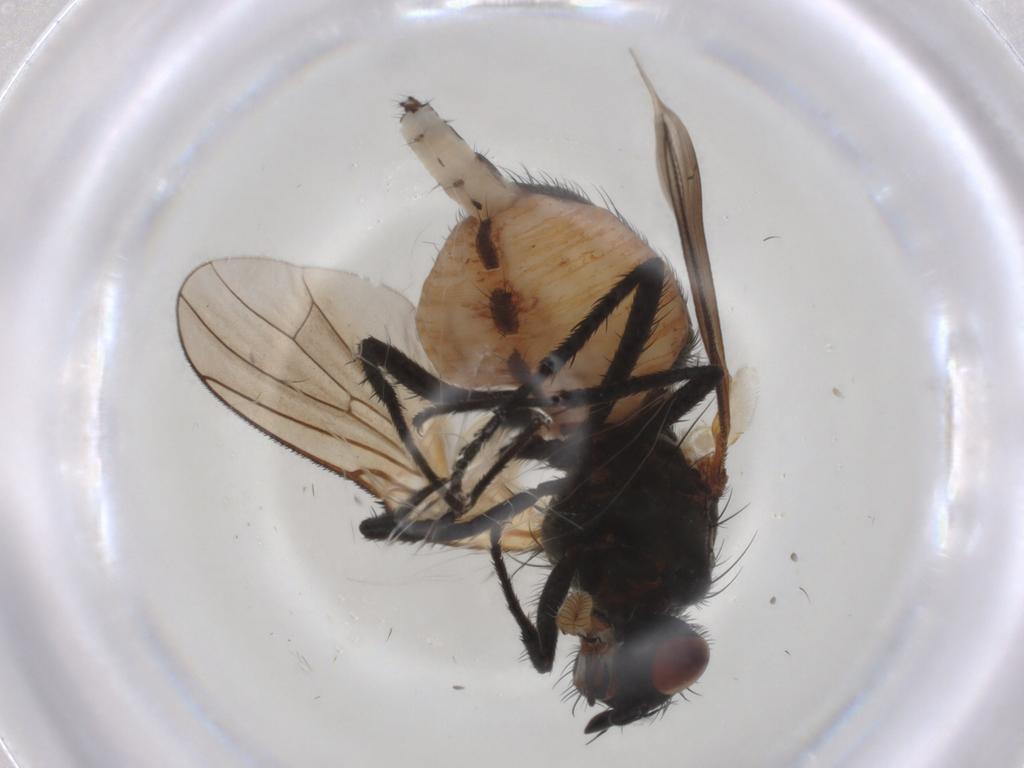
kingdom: Animalia
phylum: Arthropoda
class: Insecta
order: Diptera
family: Anthomyiidae
